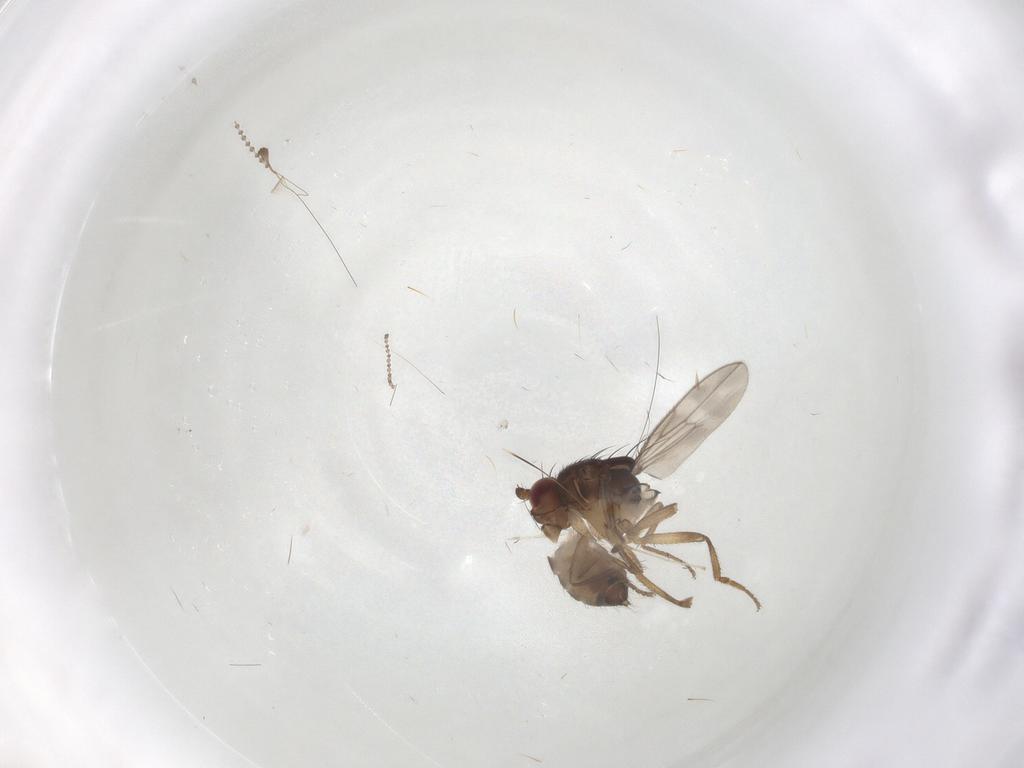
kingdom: Animalia
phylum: Arthropoda
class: Insecta
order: Diptera
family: Sphaeroceridae
